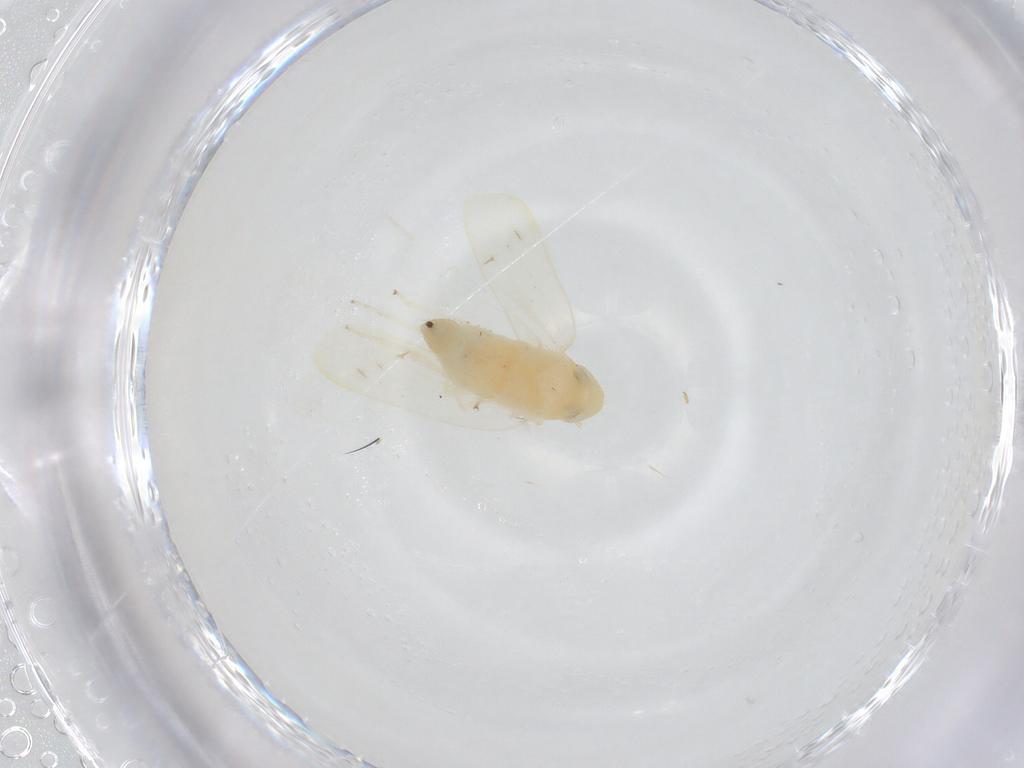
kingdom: Animalia
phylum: Arthropoda
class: Insecta
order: Hemiptera
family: Cicadellidae
